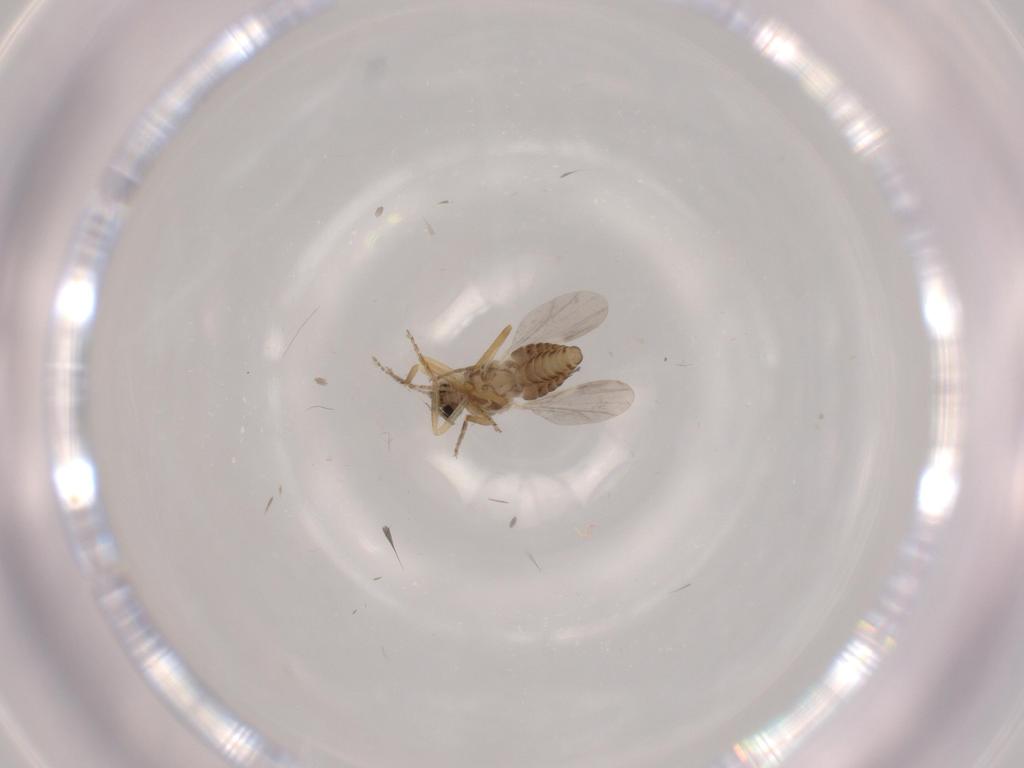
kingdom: Animalia
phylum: Arthropoda
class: Insecta
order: Diptera
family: Ceratopogonidae
